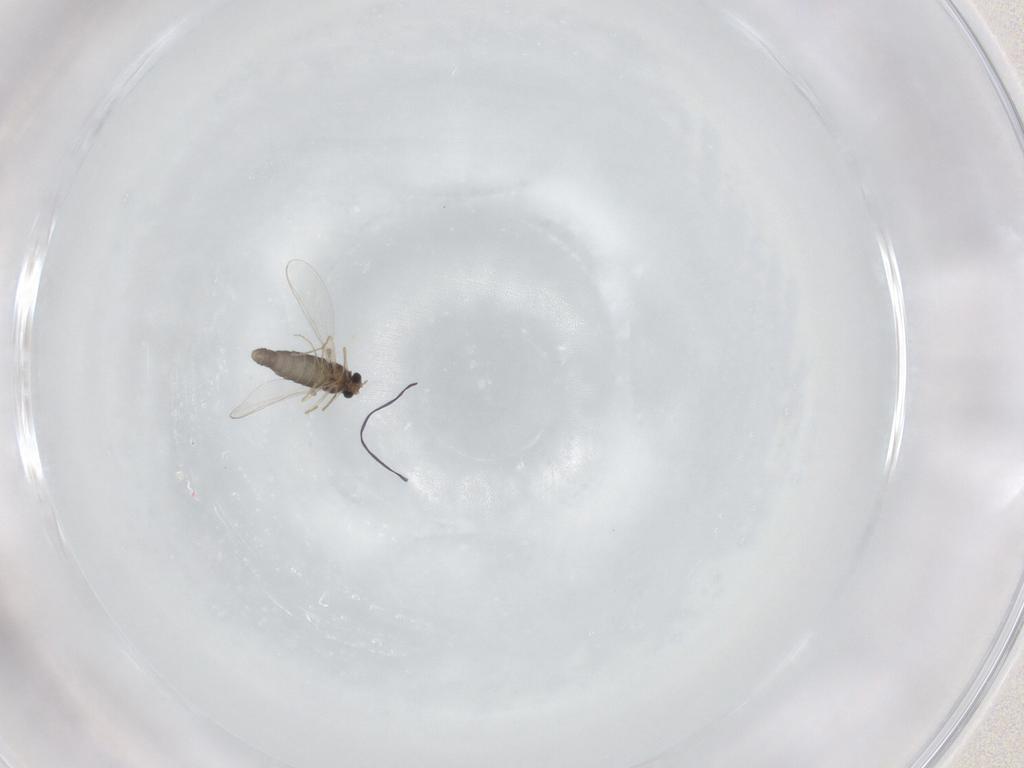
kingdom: Animalia
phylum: Arthropoda
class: Insecta
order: Diptera
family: Chironomidae
